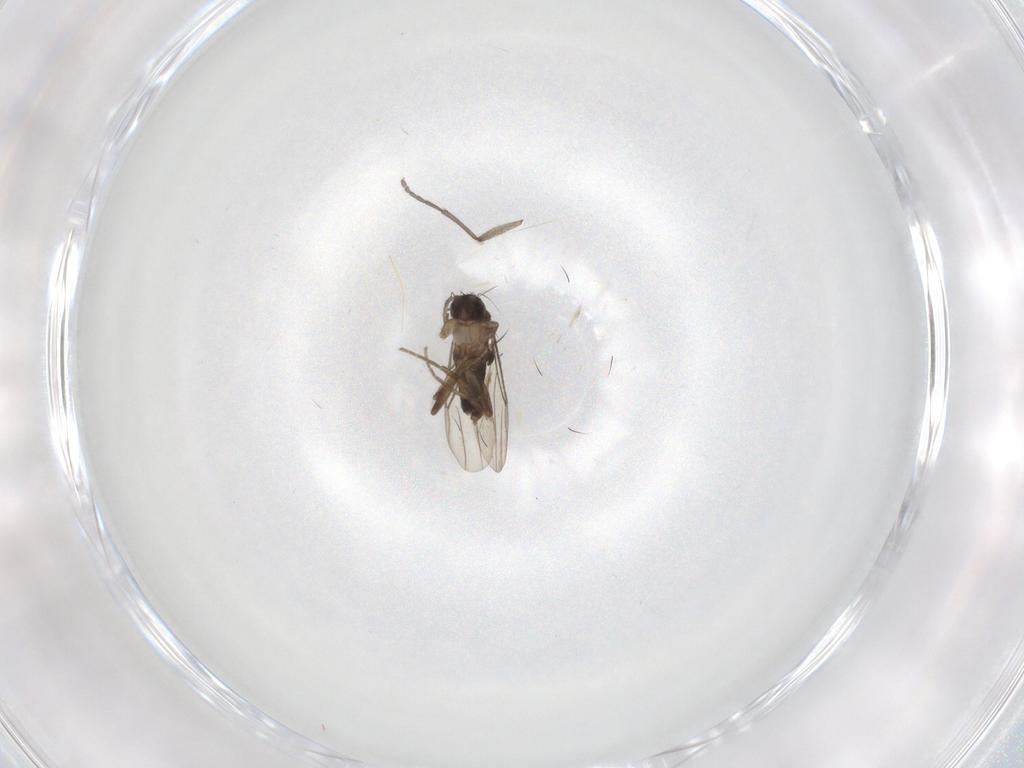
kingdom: Animalia
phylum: Arthropoda
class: Insecta
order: Diptera
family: Phoridae
